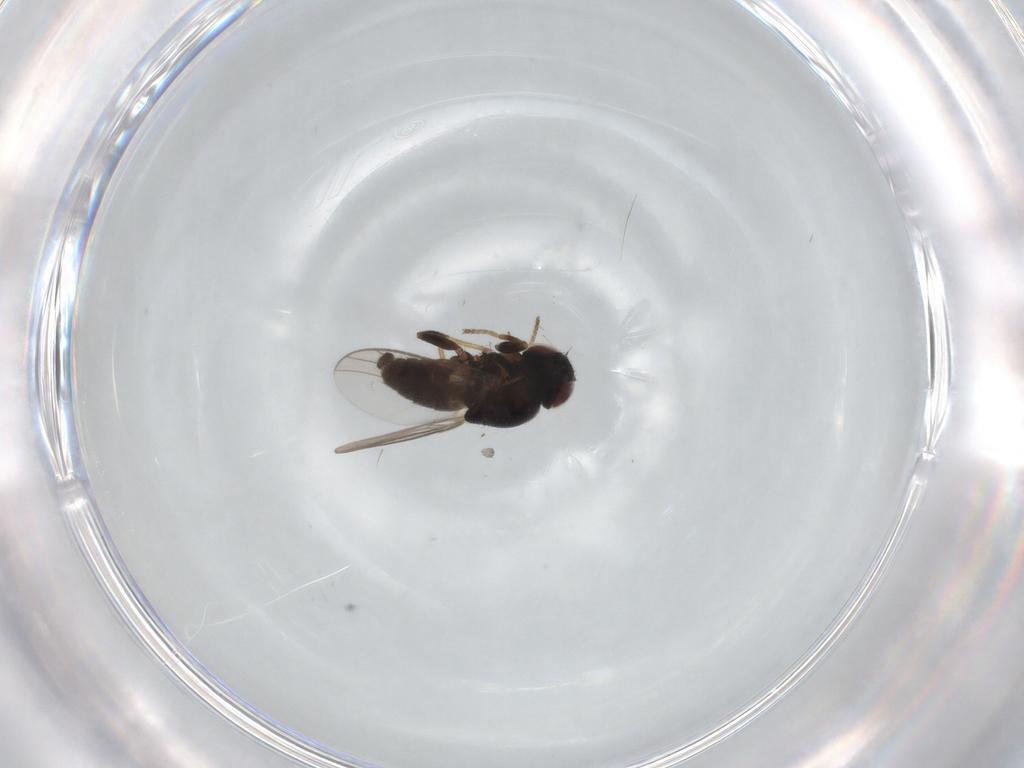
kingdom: Animalia
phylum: Arthropoda
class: Insecta
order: Diptera
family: Chloropidae
